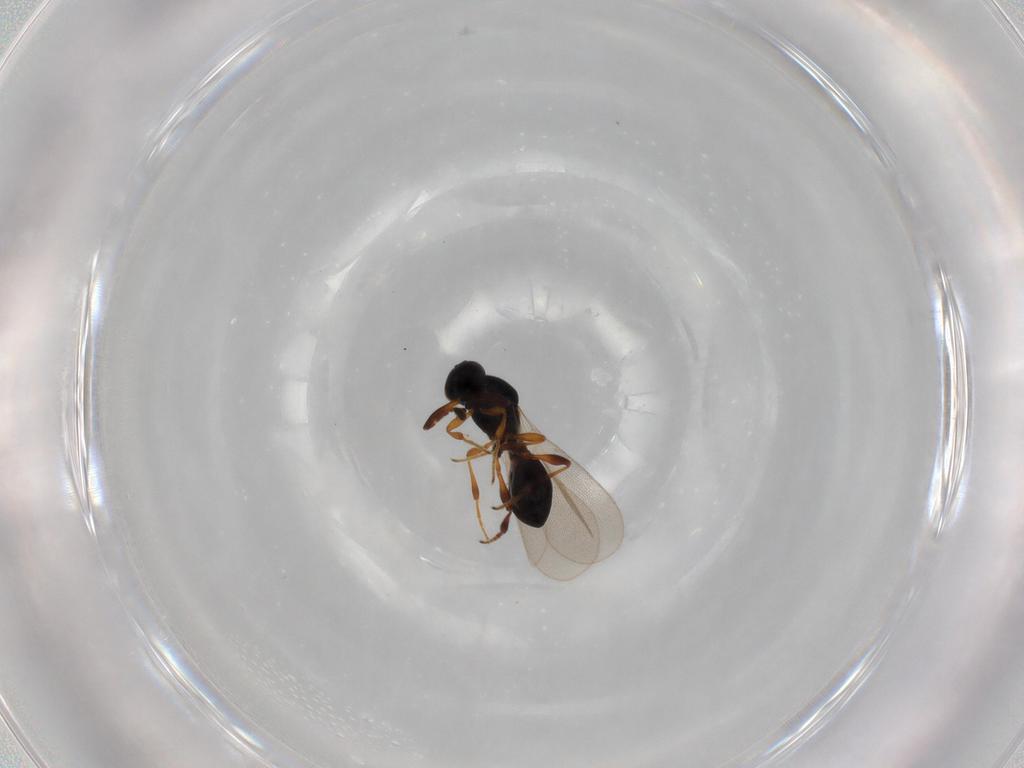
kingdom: Animalia
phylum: Arthropoda
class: Insecta
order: Hymenoptera
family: Platygastridae
